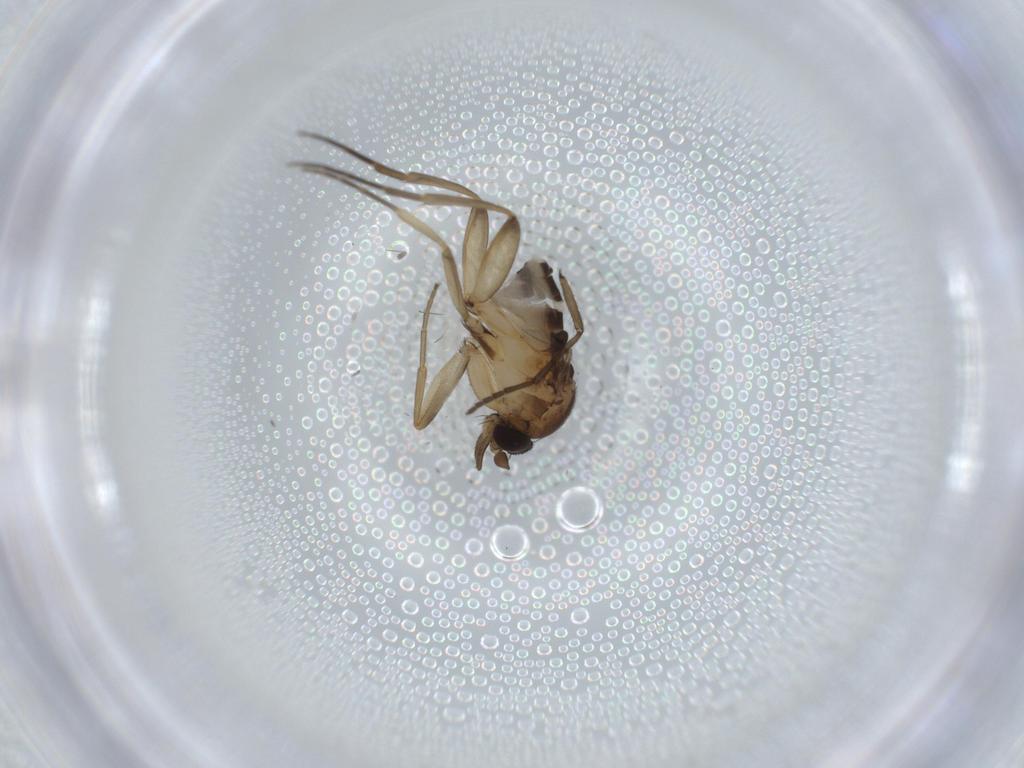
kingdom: Animalia
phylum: Arthropoda
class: Insecta
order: Diptera
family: Phoridae
